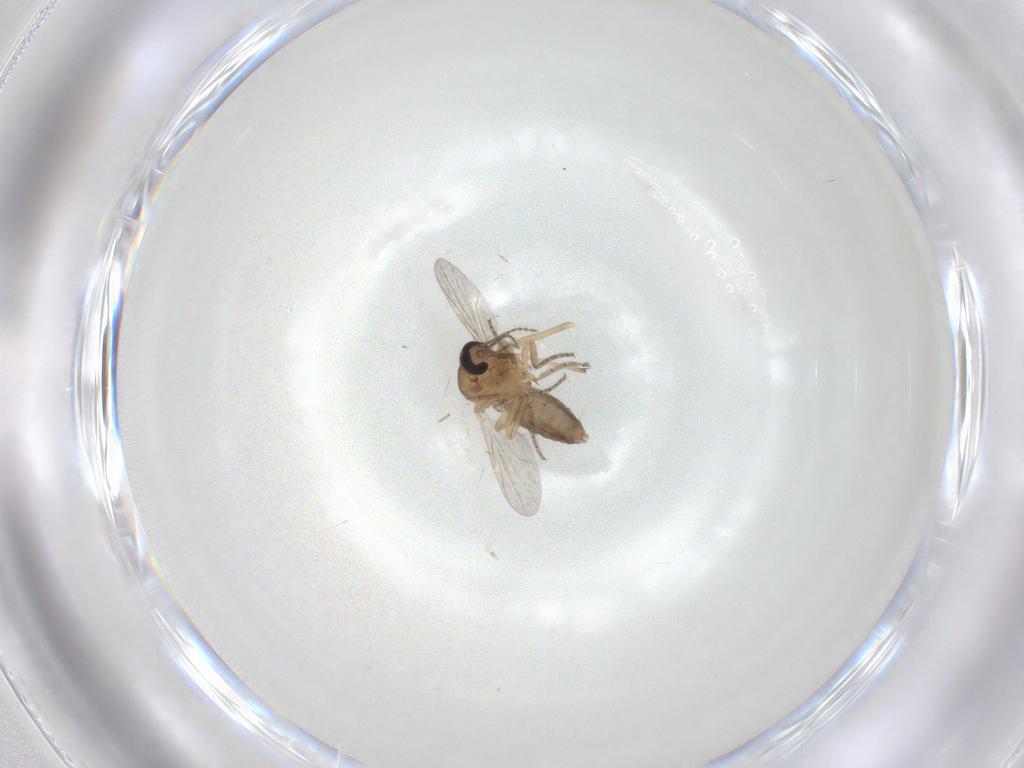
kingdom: Animalia
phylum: Arthropoda
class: Insecta
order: Diptera
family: Ceratopogonidae
